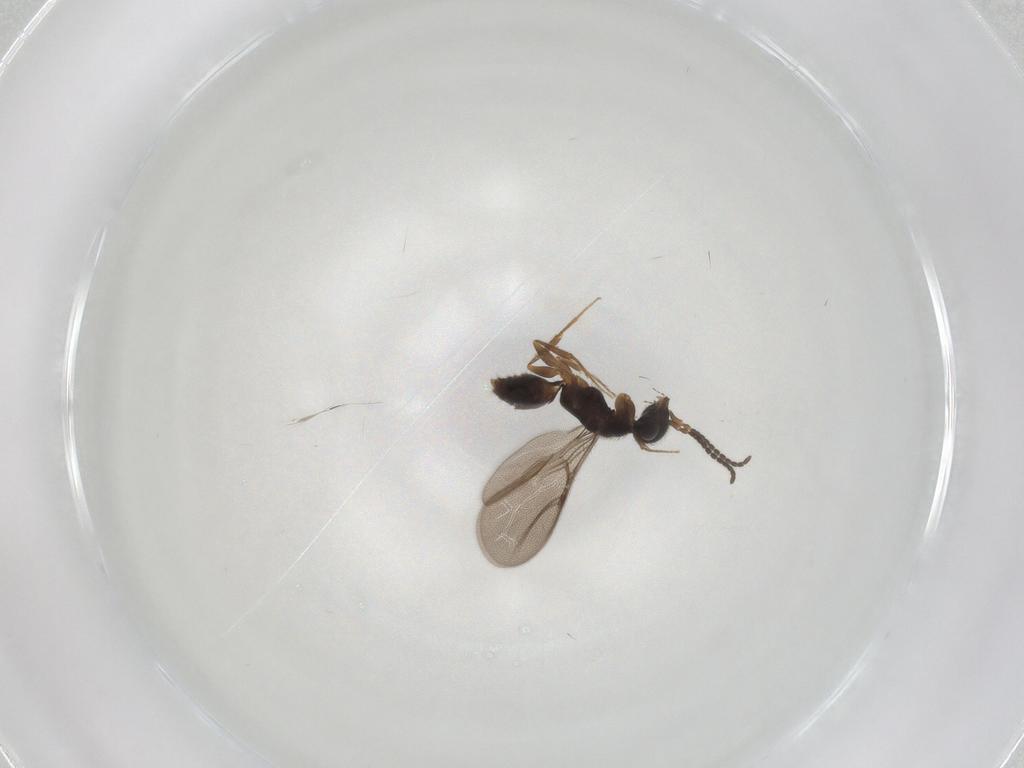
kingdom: Animalia
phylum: Arthropoda
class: Insecta
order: Hymenoptera
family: Bethylidae
